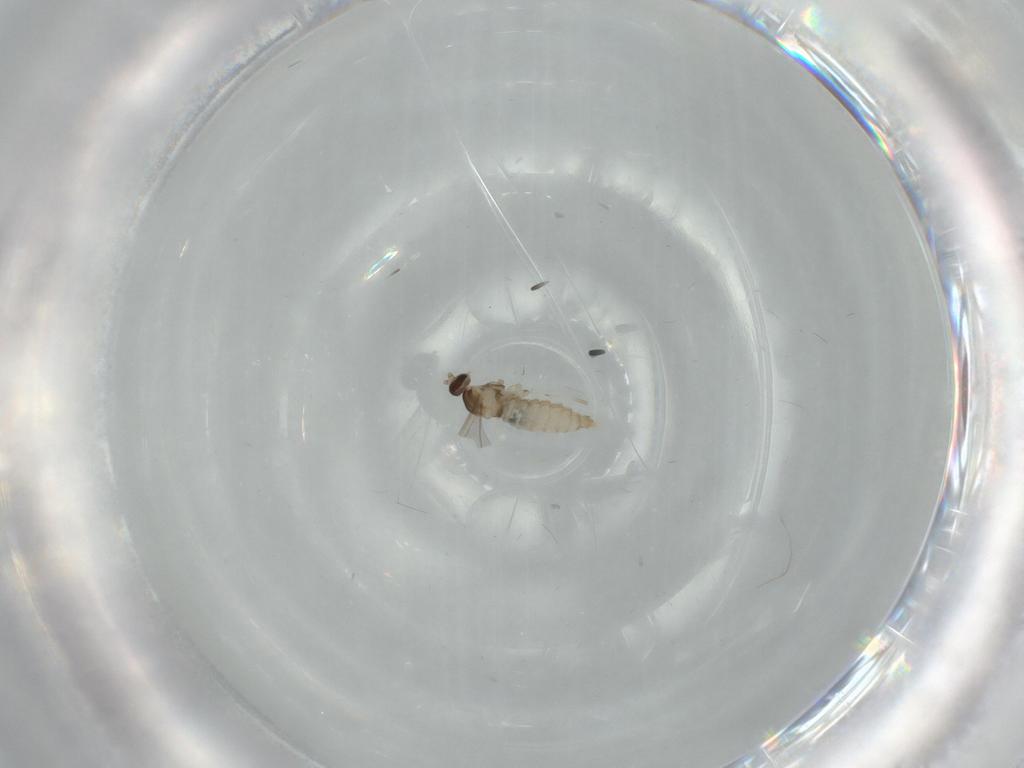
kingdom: Animalia
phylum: Arthropoda
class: Insecta
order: Diptera
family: Cecidomyiidae
